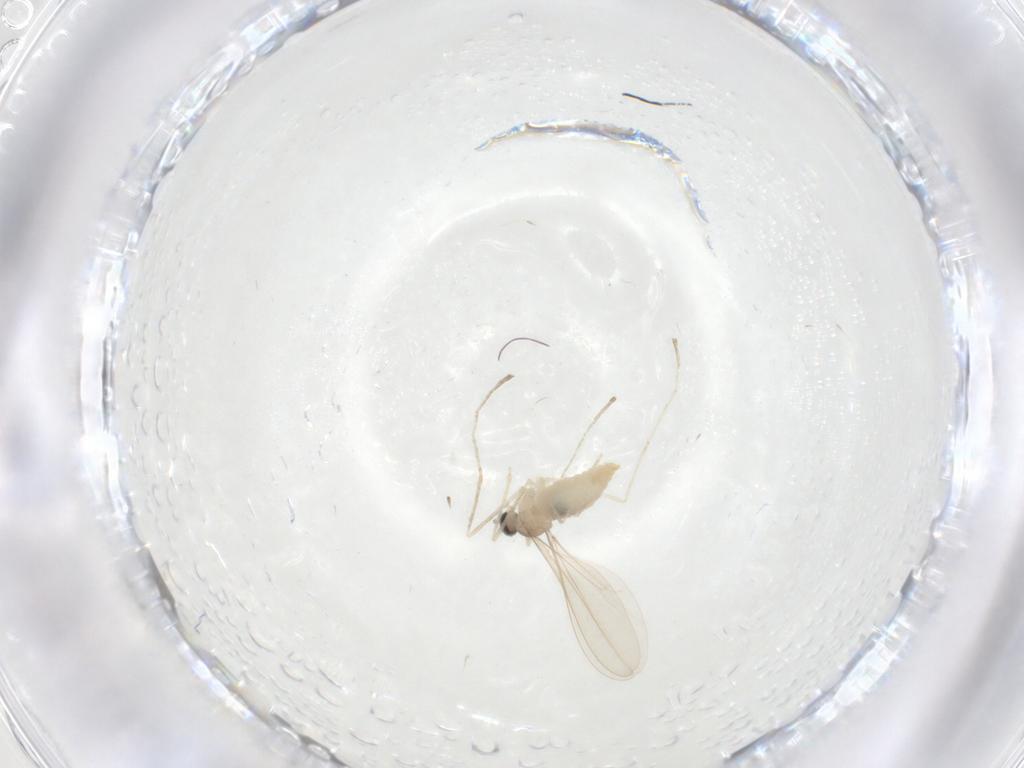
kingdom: Animalia
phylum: Arthropoda
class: Insecta
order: Diptera
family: Cecidomyiidae
